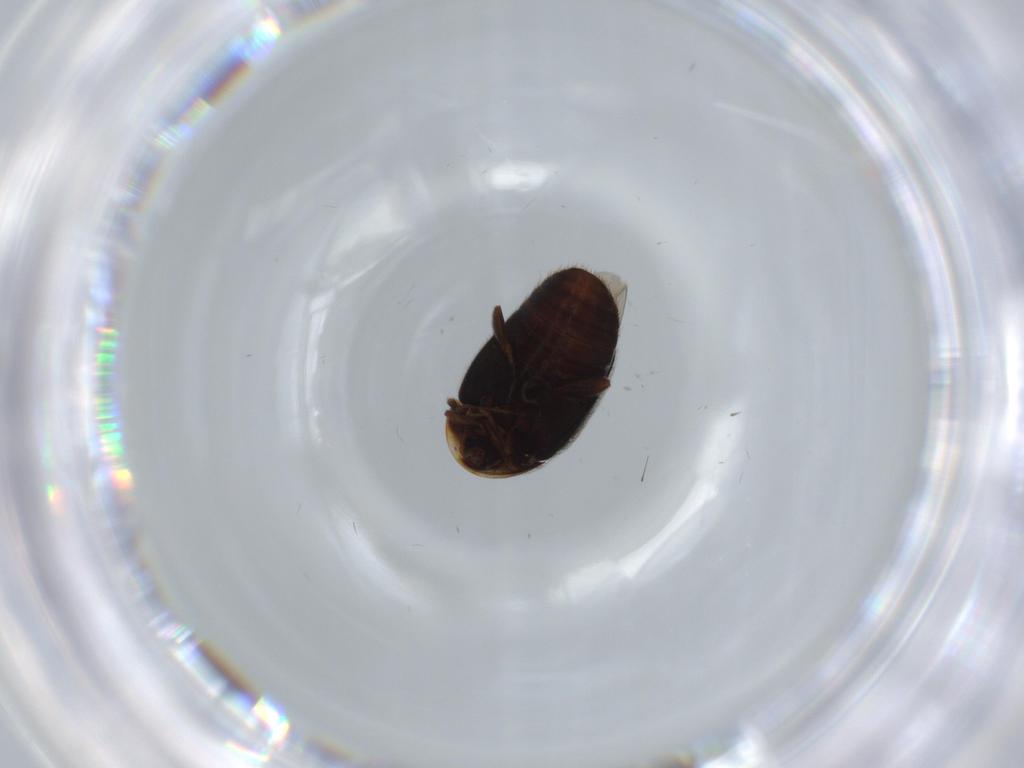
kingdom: Animalia
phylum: Arthropoda
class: Insecta
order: Coleoptera
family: Corylophidae
